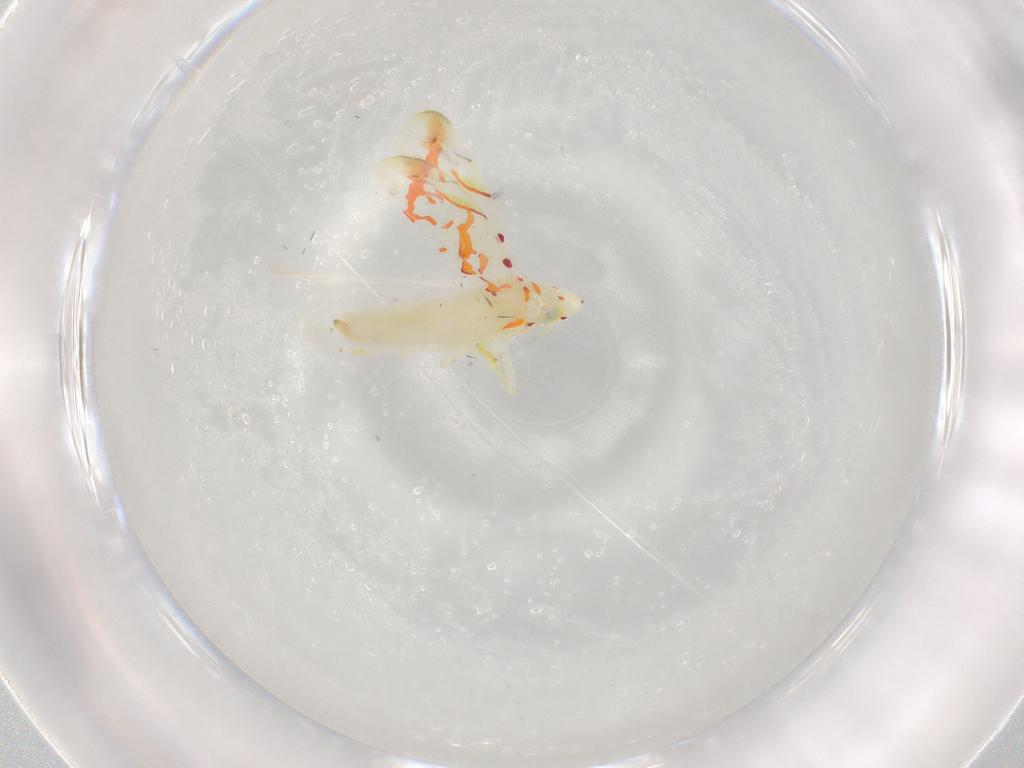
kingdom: Animalia
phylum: Arthropoda
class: Insecta
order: Hemiptera
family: Cicadellidae
